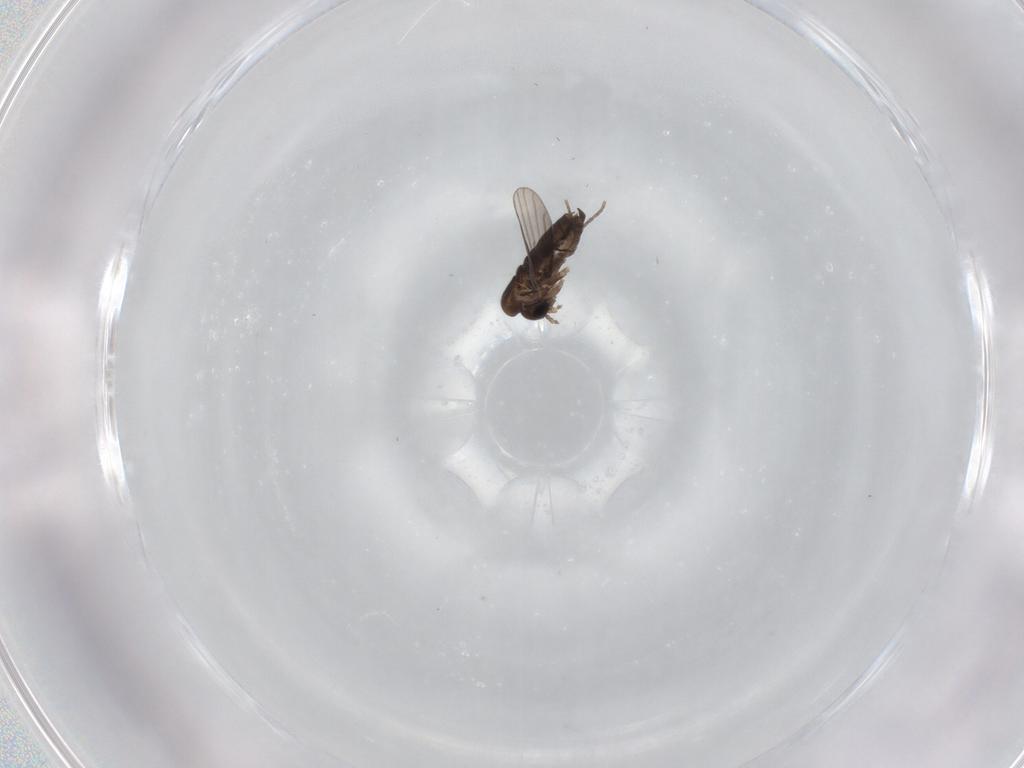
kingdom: Animalia
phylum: Arthropoda
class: Insecta
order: Diptera
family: Psychodidae
